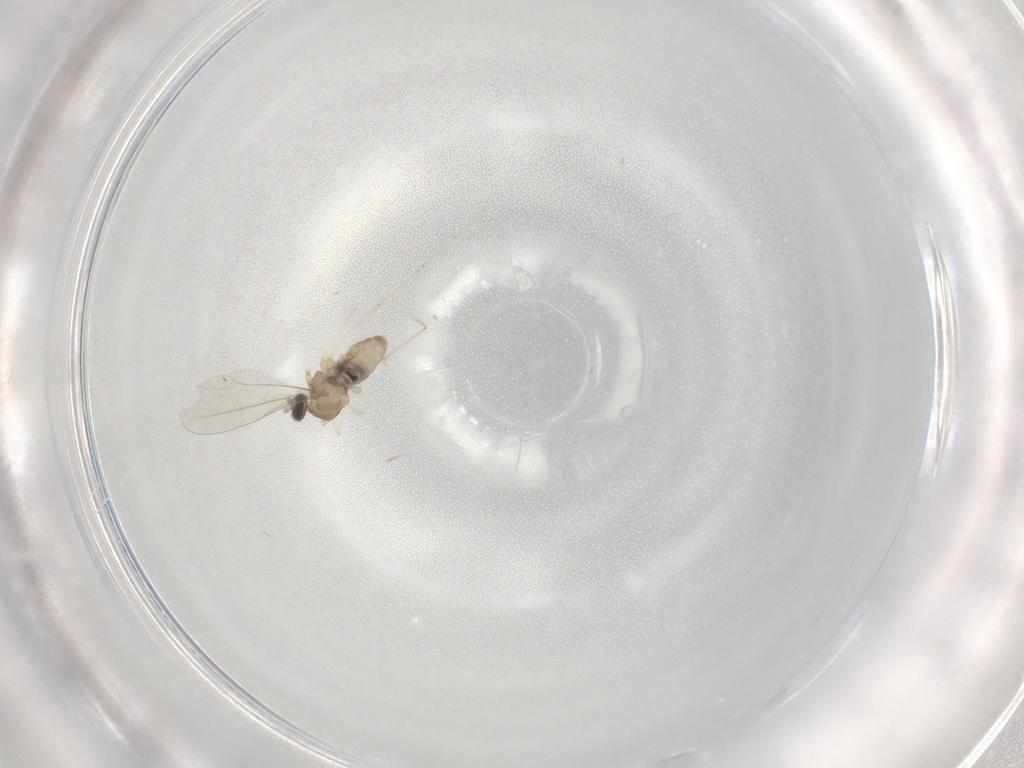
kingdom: Animalia
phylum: Arthropoda
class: Insecta
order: Diptera
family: Cecidomyiidae
